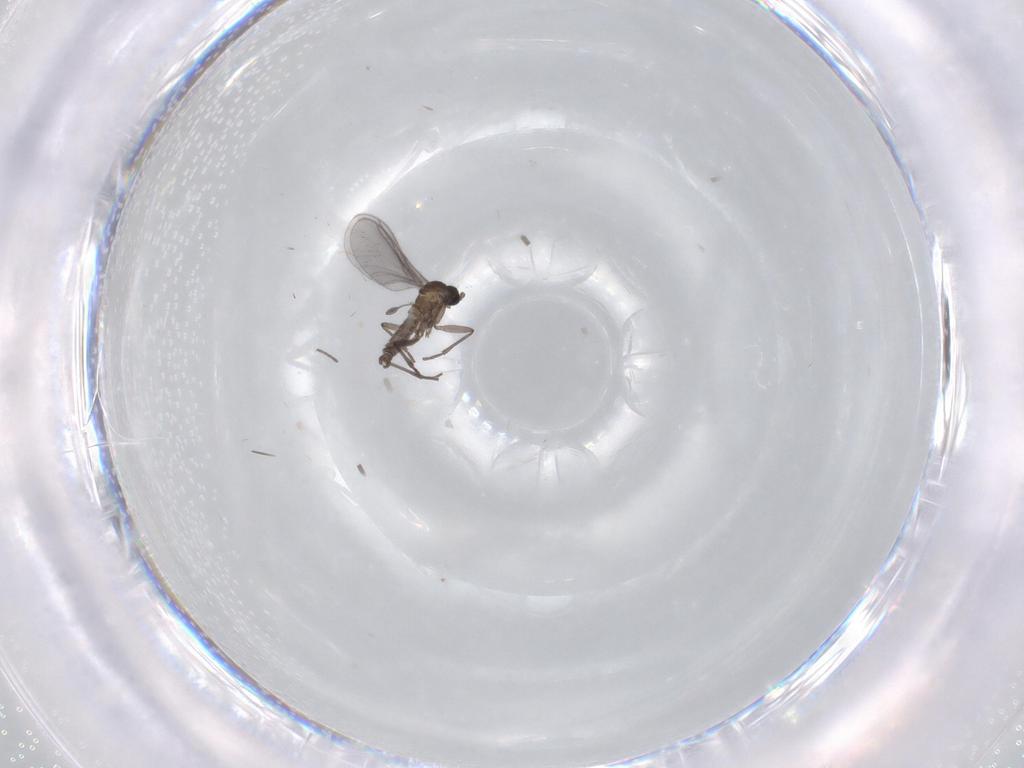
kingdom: Animalia
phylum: Arthropoda
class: Insecta
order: Diptera
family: Sciaridae
